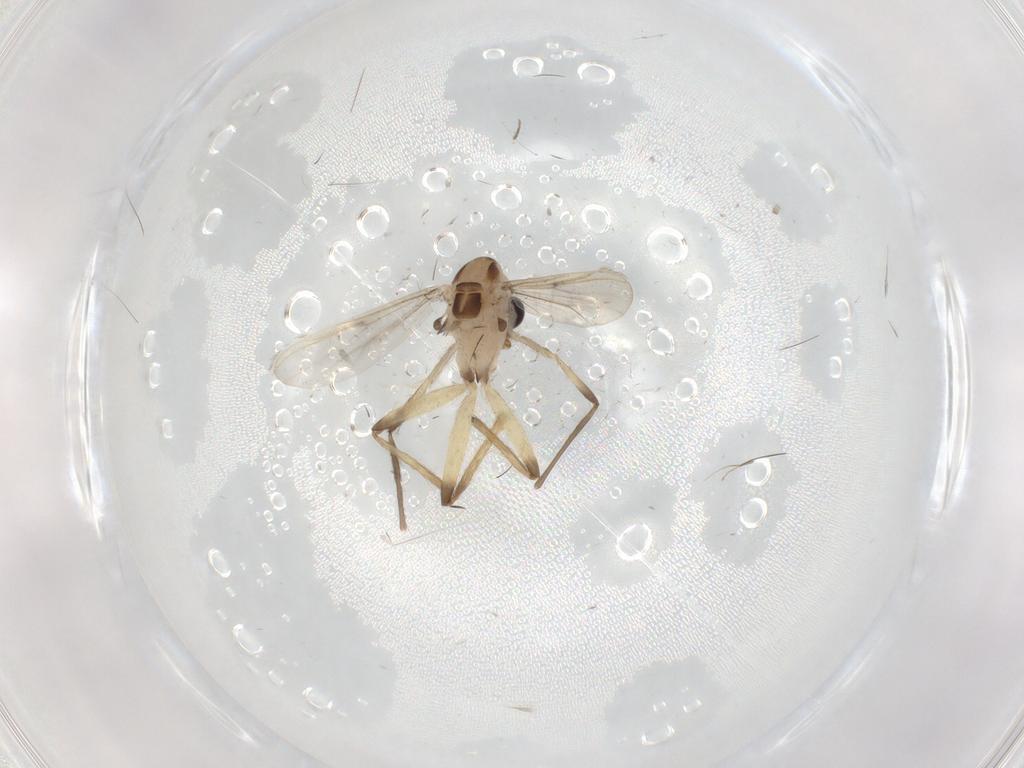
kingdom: Animalia
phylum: Arthropoda
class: Insecta
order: Diptera
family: Chironomidae
